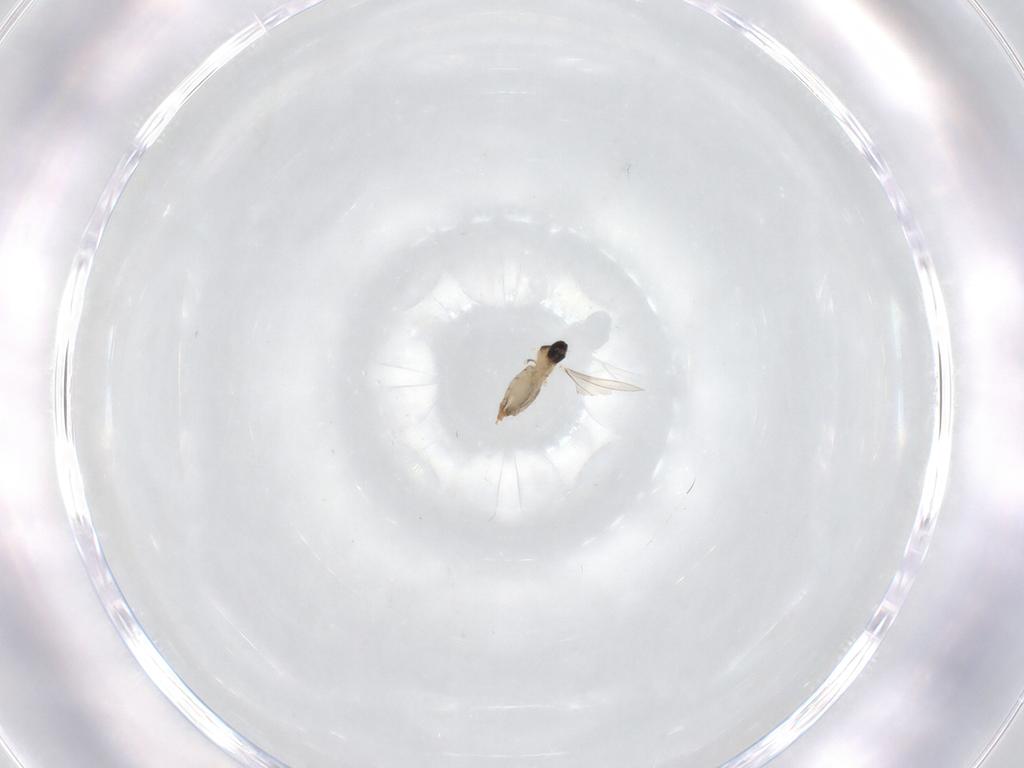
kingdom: Animalia
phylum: Arthropoda
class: Insecta
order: Diptera
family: Cecidomyiidae
